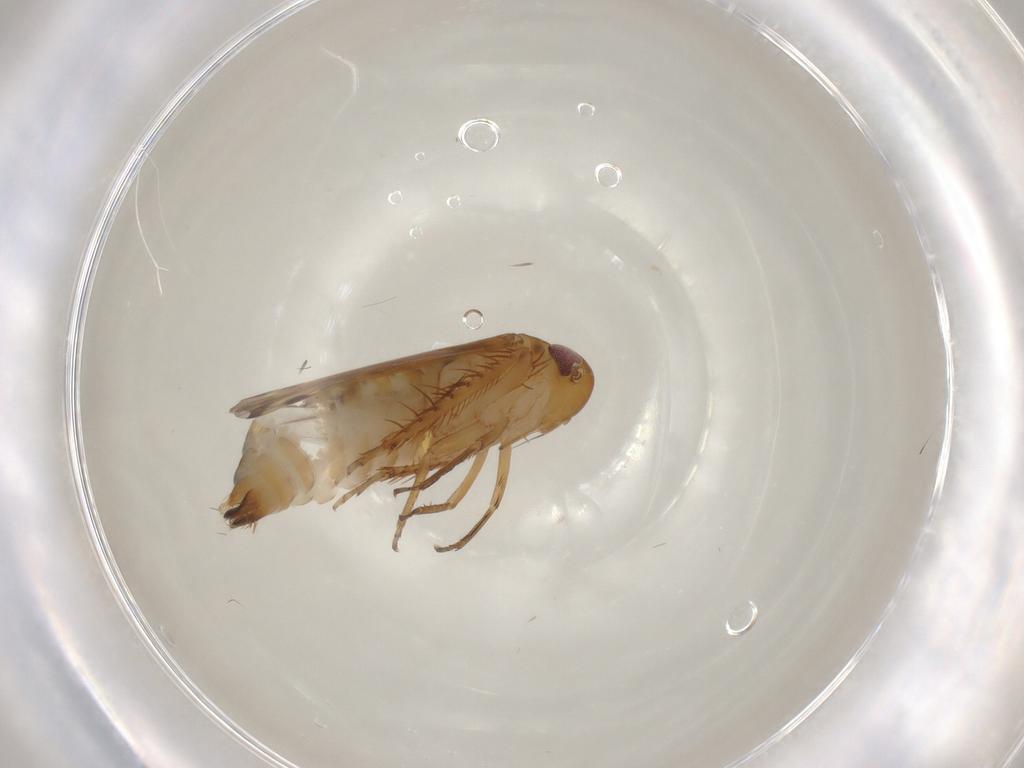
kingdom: Animalia
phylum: Arthropoda
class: Insecta
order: Hemiptera
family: Cicadellidae
